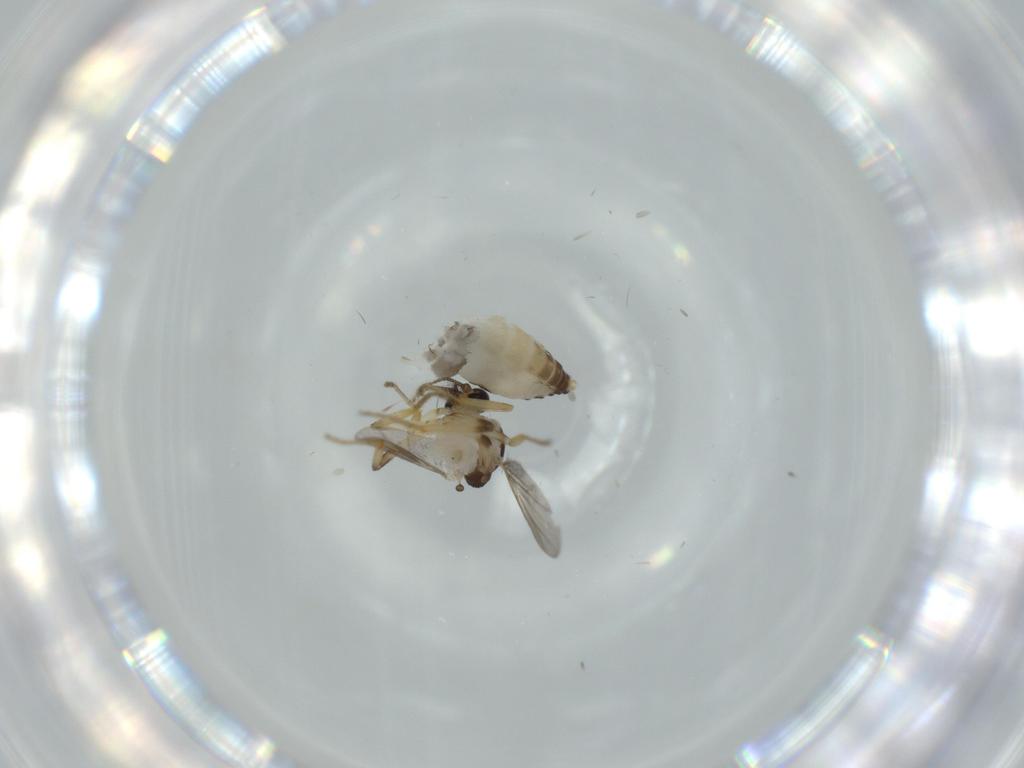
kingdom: Animalia
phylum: Arthropoda
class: Insecta
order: Diptera
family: Ceratopogonidae
